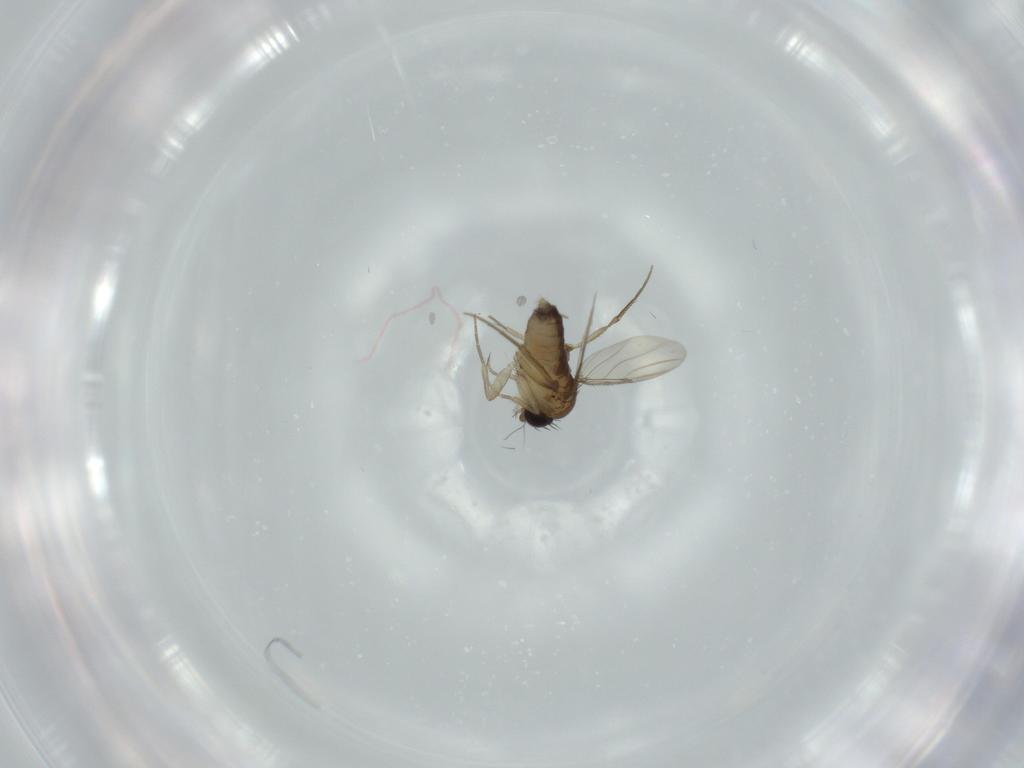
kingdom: Animalia
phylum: Arthropoda
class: Insecta
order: Diptera
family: Phoridae
